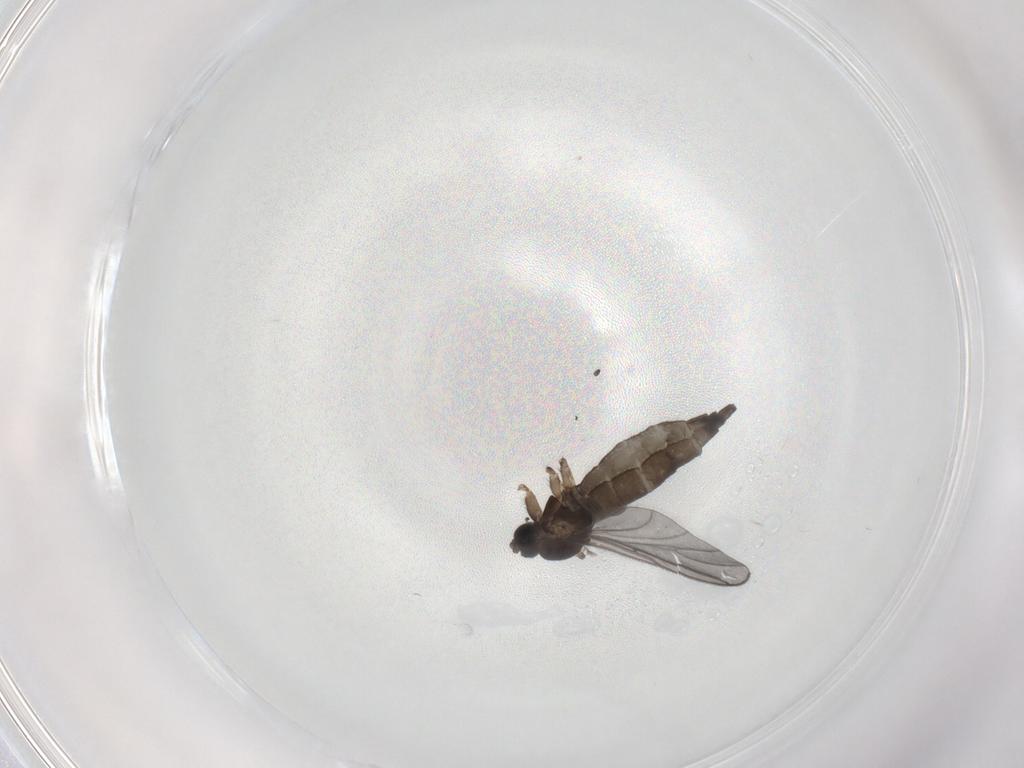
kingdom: Animalia
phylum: Arthropoda
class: Insecta
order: Diptera
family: Sciaridae
